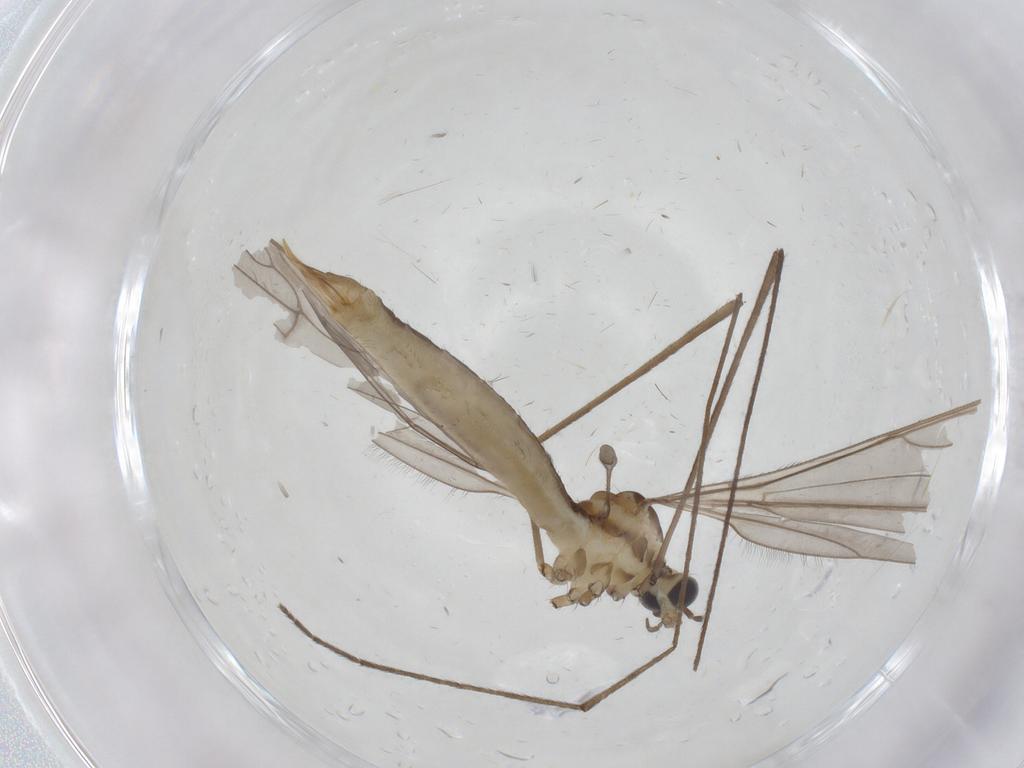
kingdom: Animalia
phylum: Arthropoda
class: Insecta
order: Diptera
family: Limoniidae
